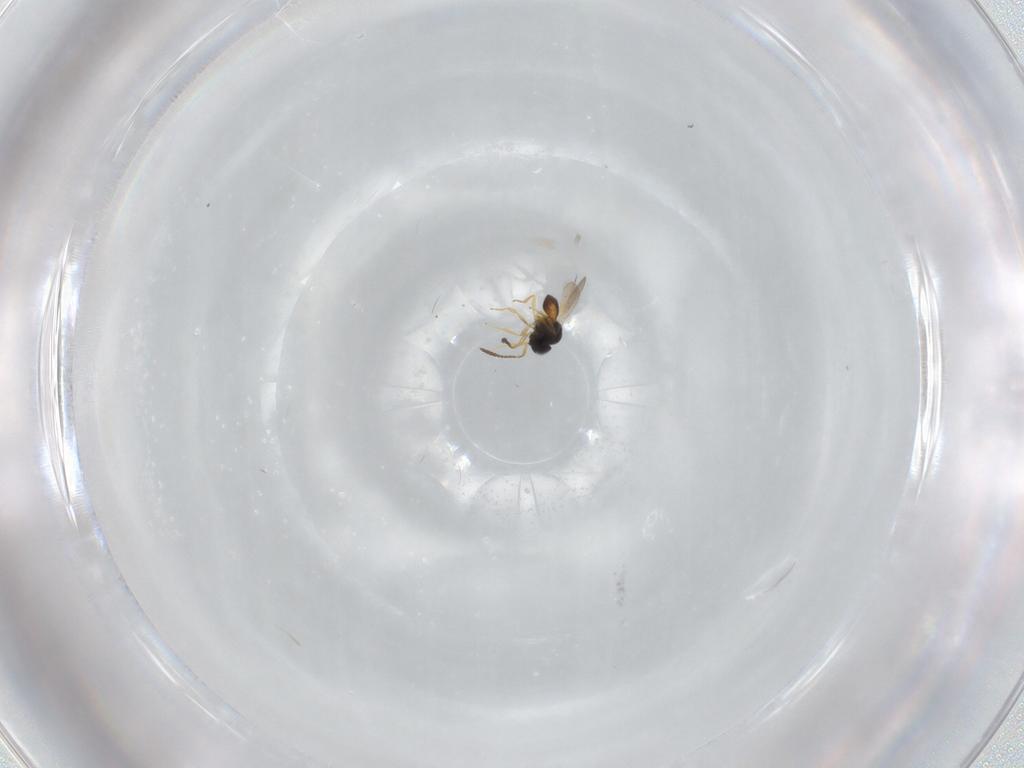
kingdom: Animalia
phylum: Arthropoda
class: Insecta
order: Hymenoptera
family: Scelionidae
